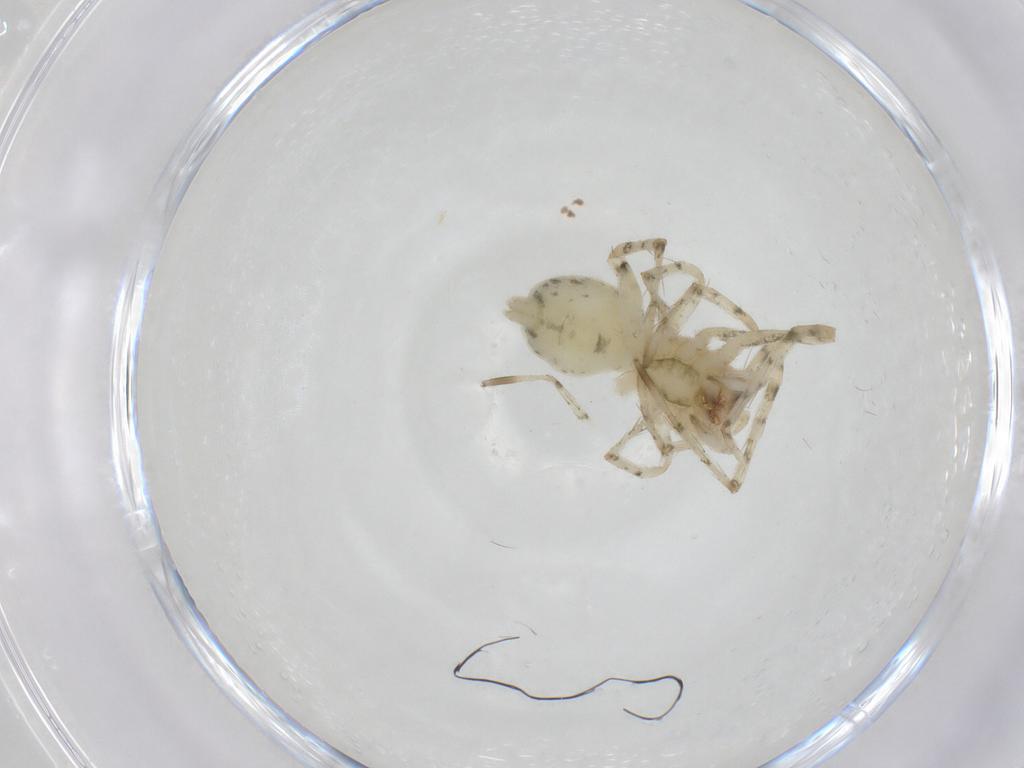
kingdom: Animalia
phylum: Arthropoda
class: Arachnida
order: Araneae
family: Anyphaenidae
